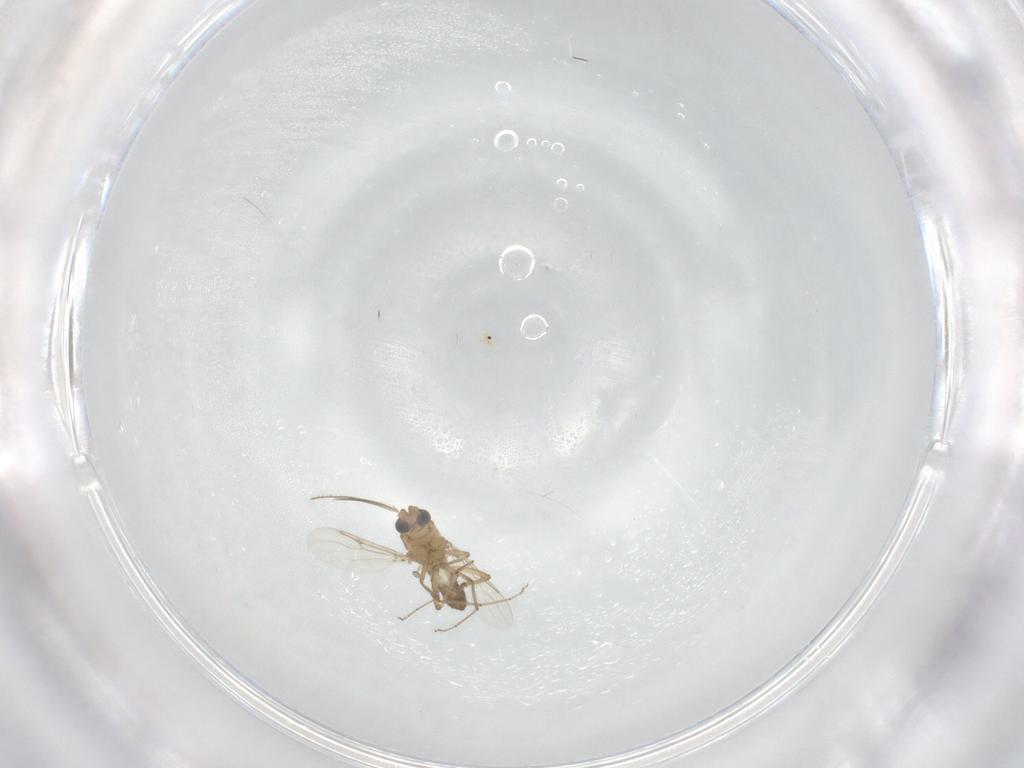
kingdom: Animalia
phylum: Arthropoda
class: Insecta
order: Diptera
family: Ceratopogonidae
